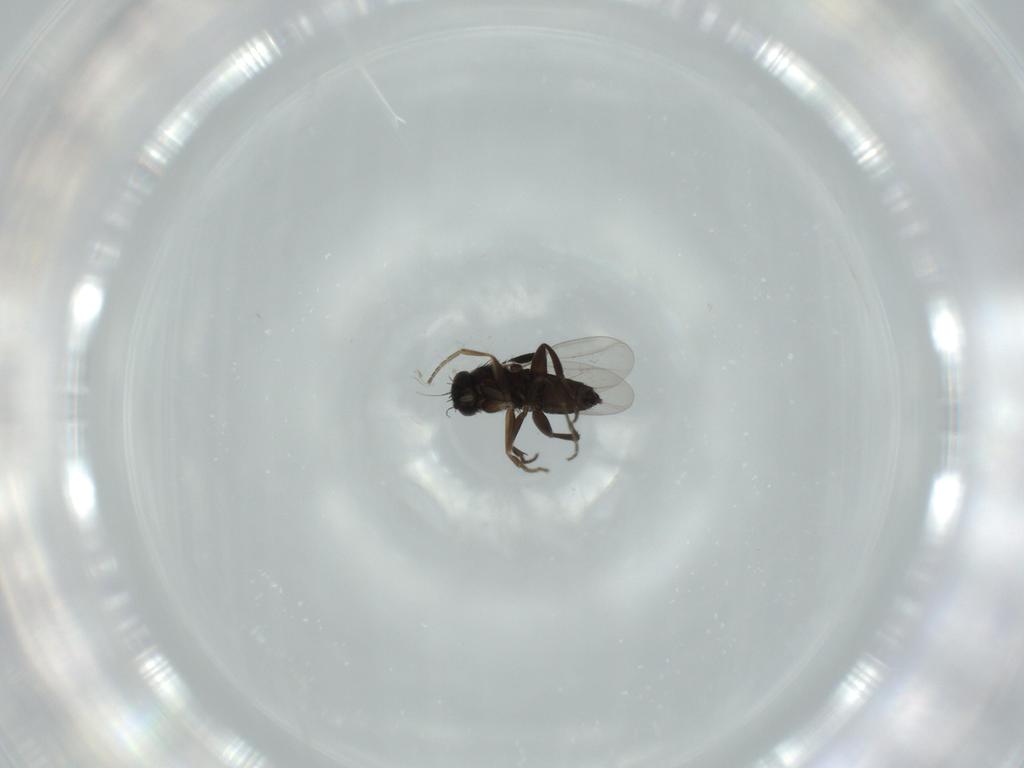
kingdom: Animalia
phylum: Arthropoda
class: Insecta
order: Diptera
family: Phoridae
